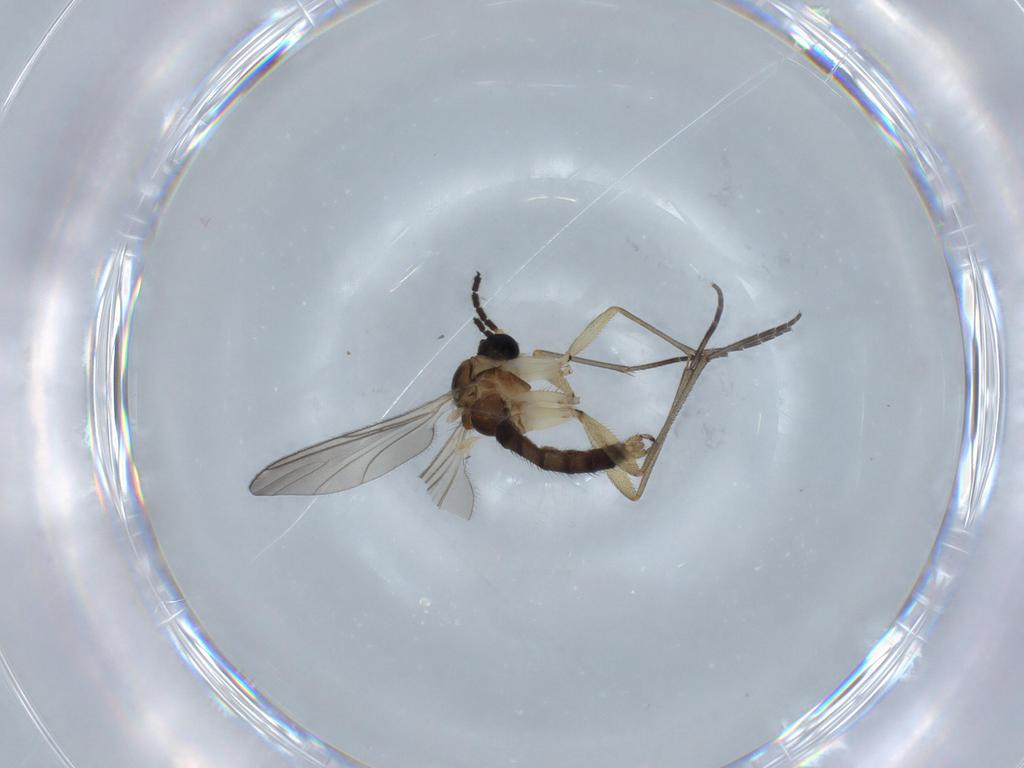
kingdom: Animalia
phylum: Arthropoda
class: Insecta
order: Diptera
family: Sciaridae
